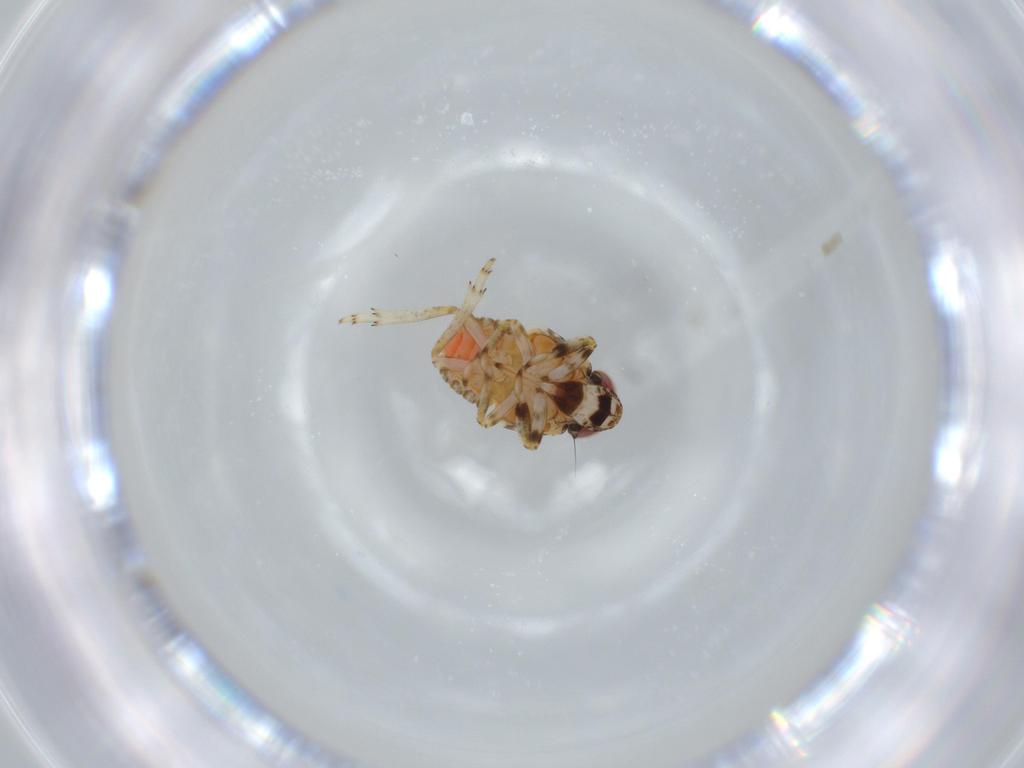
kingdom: Animalia
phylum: Arthropoda
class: Insecta
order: Hemiptera
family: Issidae
